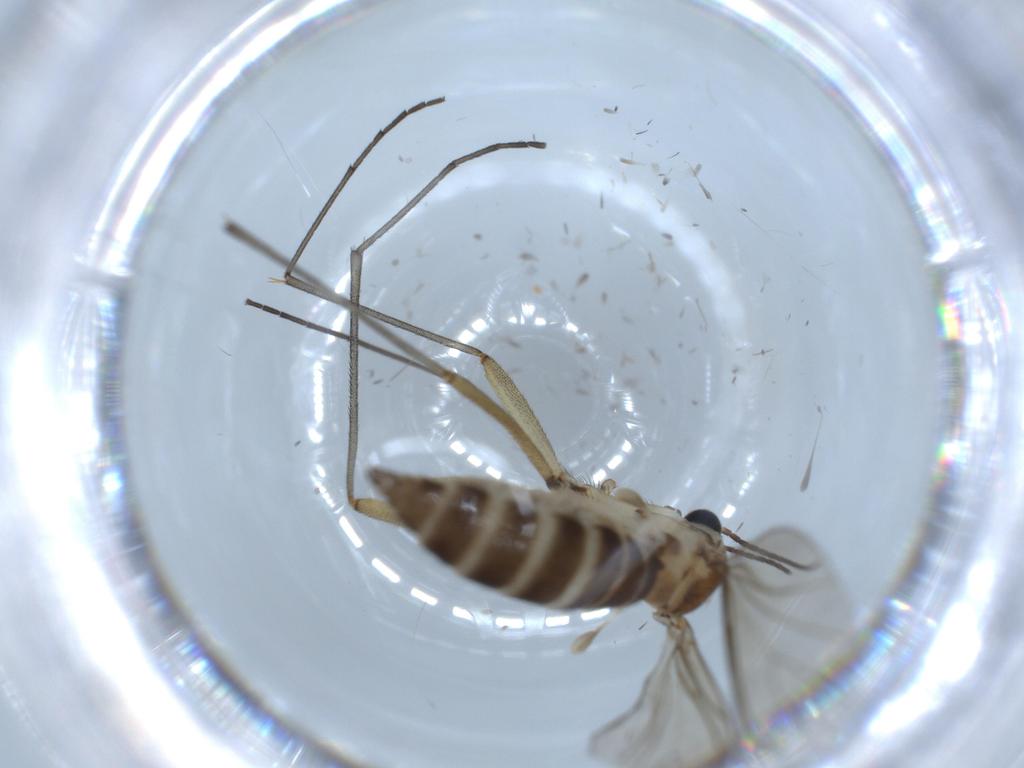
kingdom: Animalia
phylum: Arthropoda
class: Insecta
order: Diptera
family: Sciaridae
